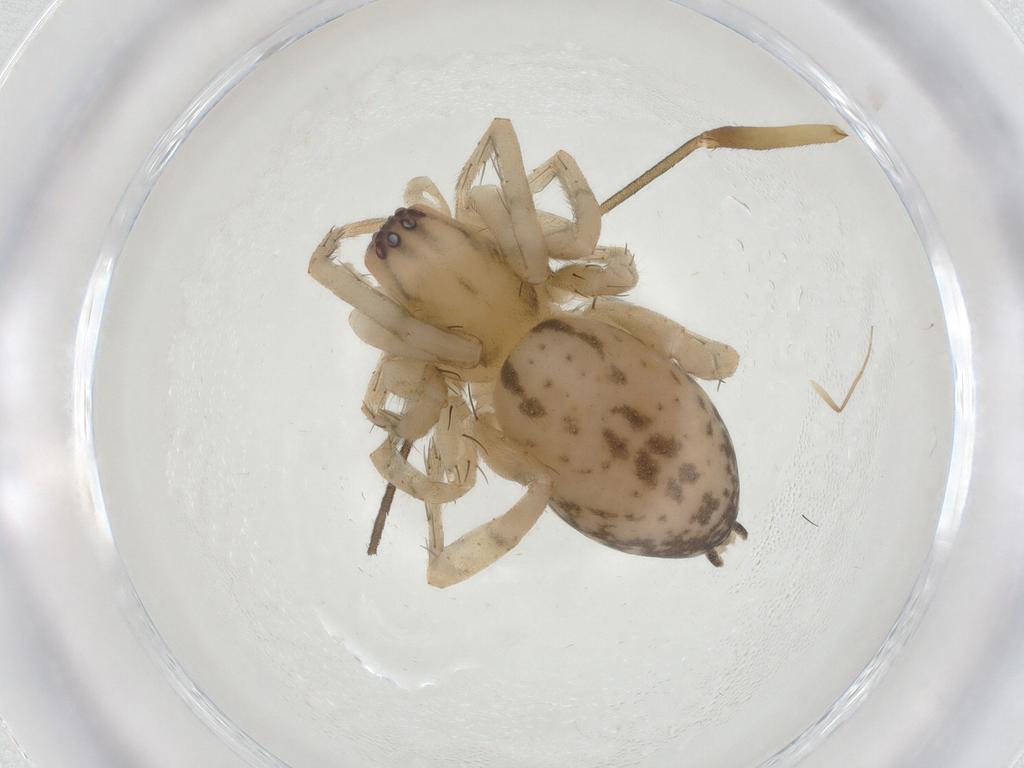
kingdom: Animalia
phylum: Arthropoda
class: Arachnida
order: Araneae
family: Anyphaenidae
